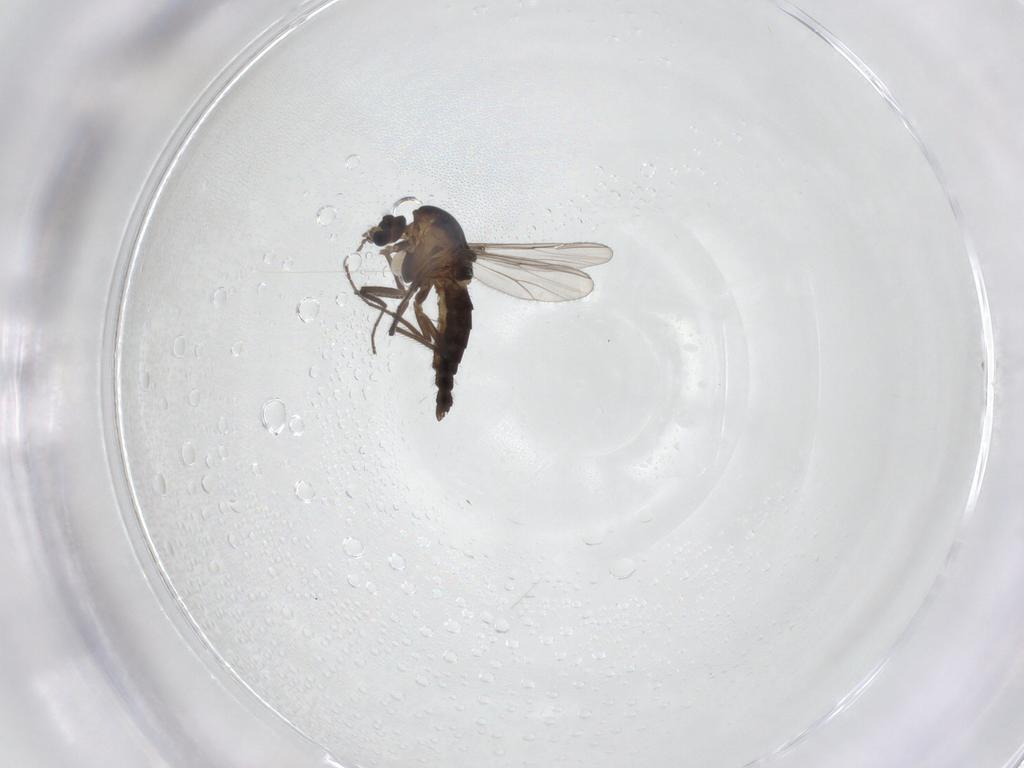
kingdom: Animalia
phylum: Arthropoda
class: Insecta
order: Diptera
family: Chironomidae
